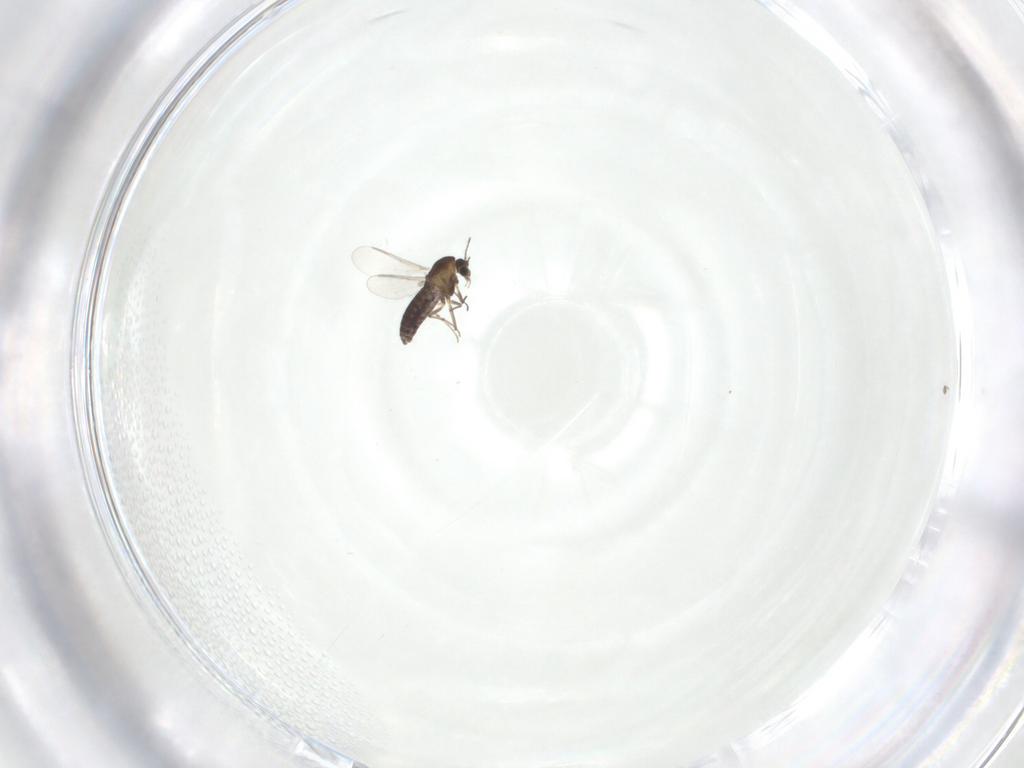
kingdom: Animalia
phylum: Arthropoda
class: Insecta
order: Diptera
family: Chironomidae
